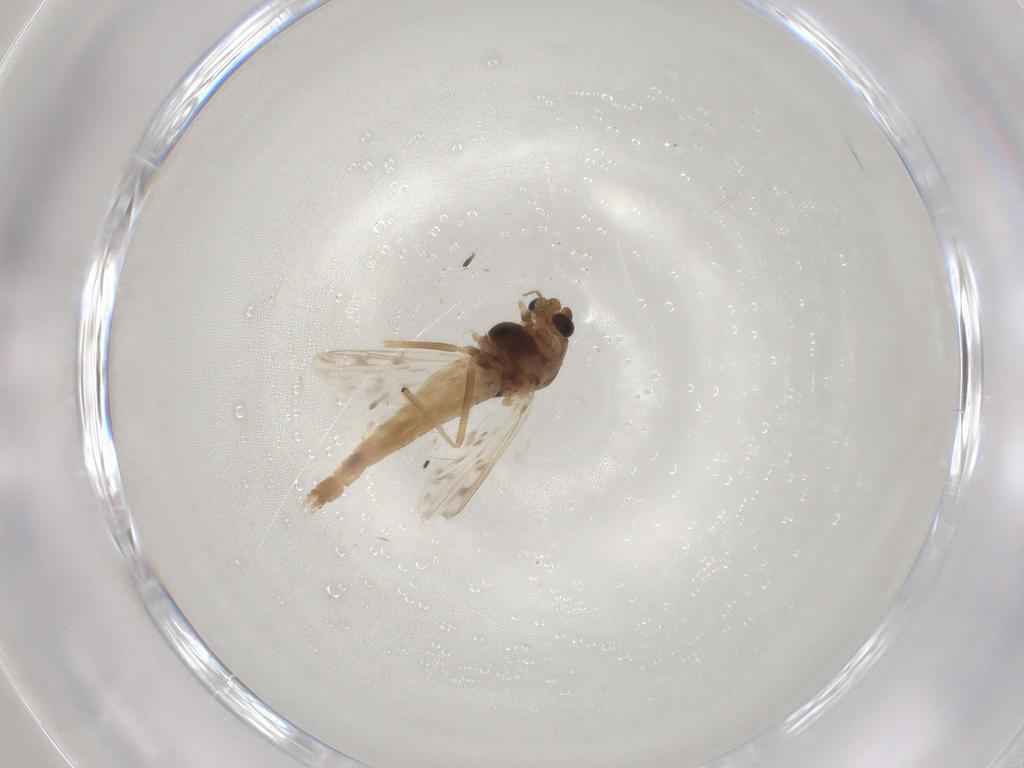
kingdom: Animalia
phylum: Arthropoda
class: Insecta
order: Diptera
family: Chironomidae
